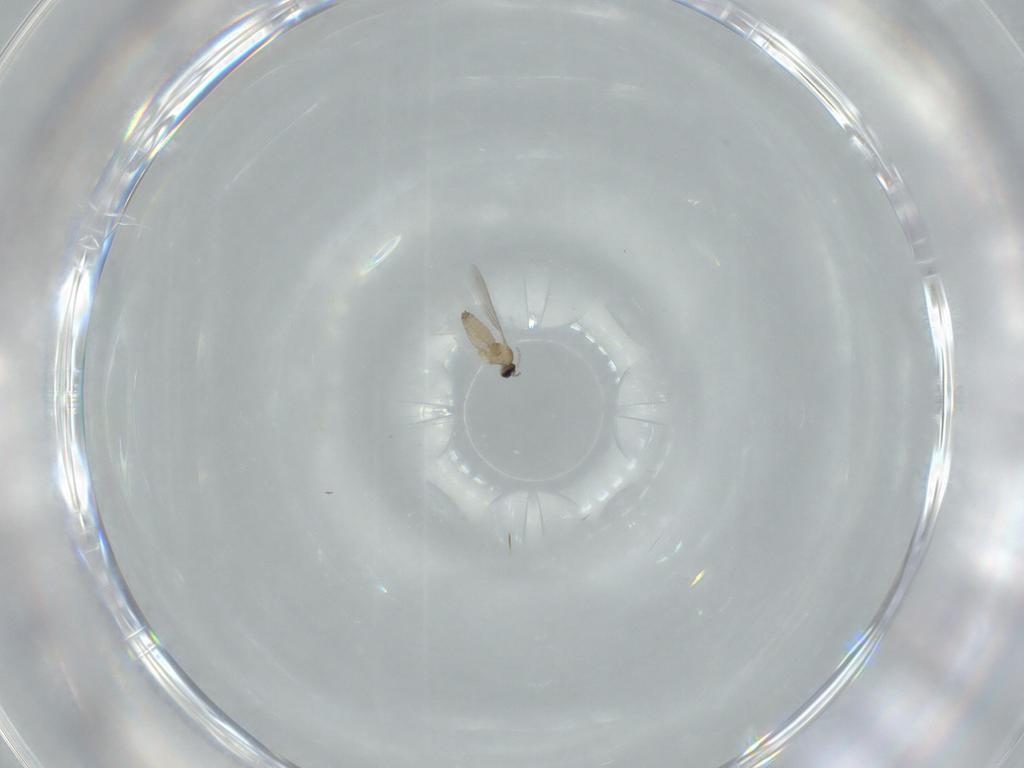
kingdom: Animalia
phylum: Arthropoda
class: Insecta
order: Diptera
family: Cecidomyiidae
